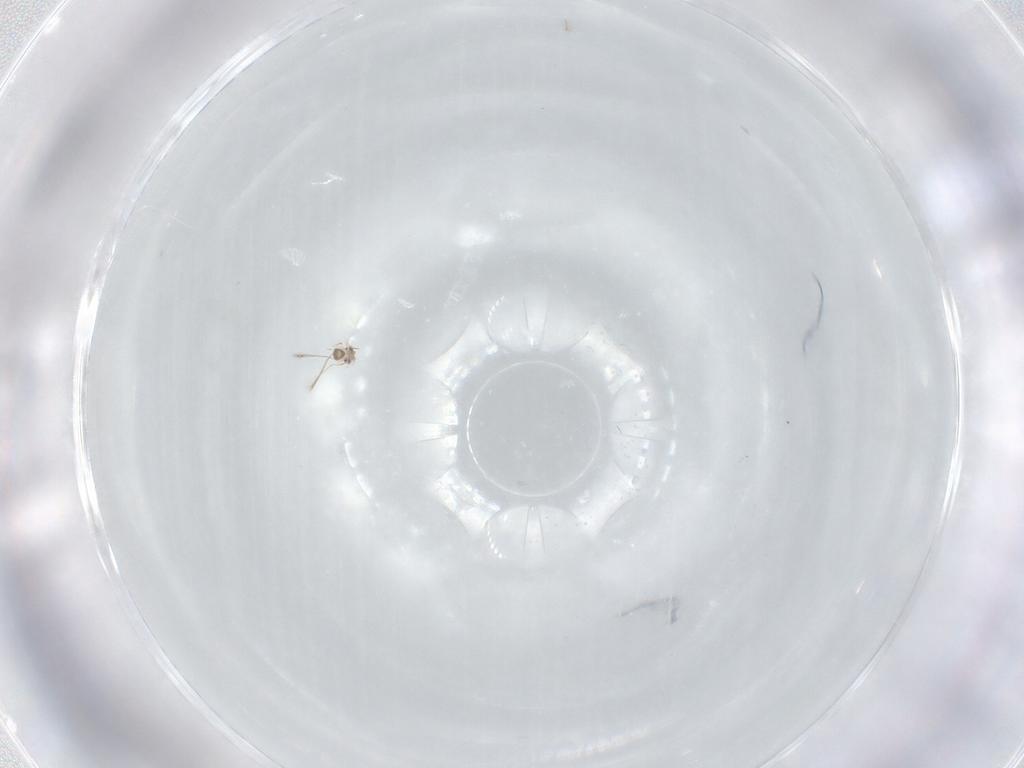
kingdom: Animalia
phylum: Arthropoda
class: Insecta
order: Hymenoptera
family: Mymaridae
